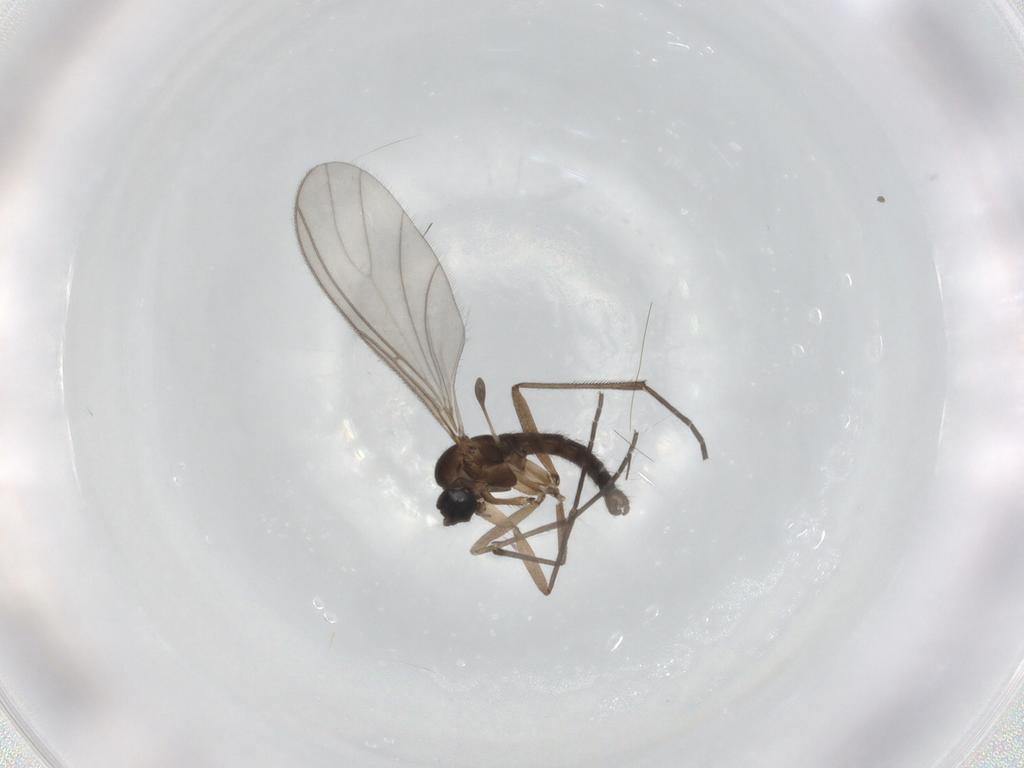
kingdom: Animalia
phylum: Arthropoda
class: Insecta
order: Diptera
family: Sciaridae
